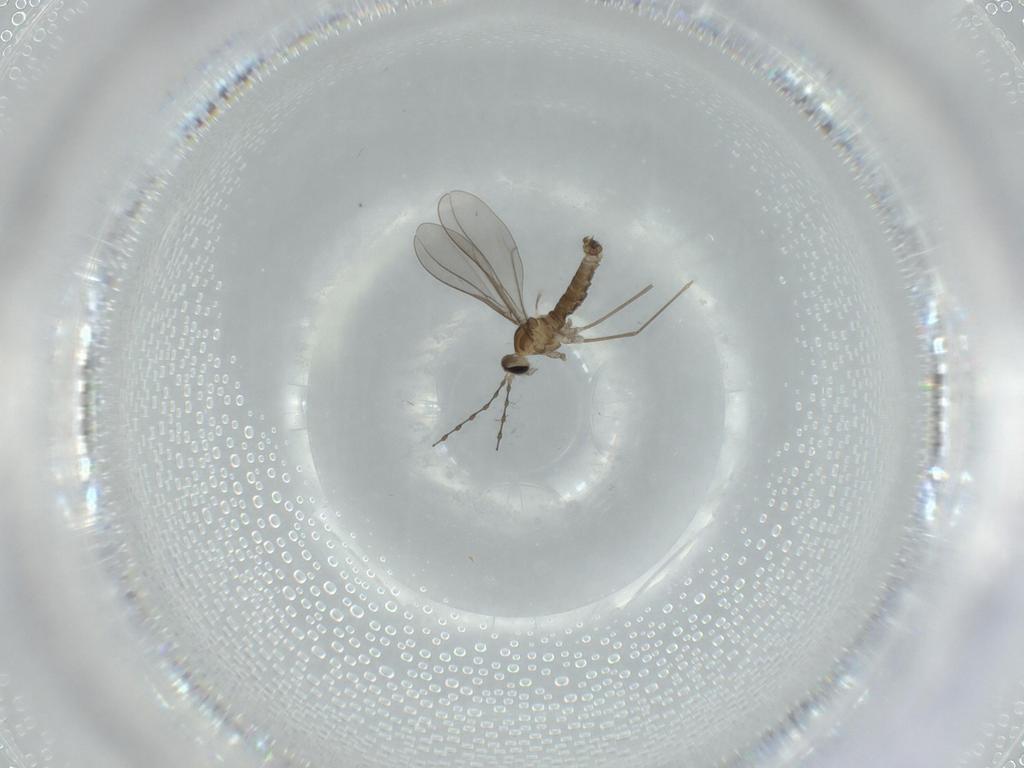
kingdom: Animalia
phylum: Arthropoda
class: Insecta
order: Diptera
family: Cecidomyiidae
